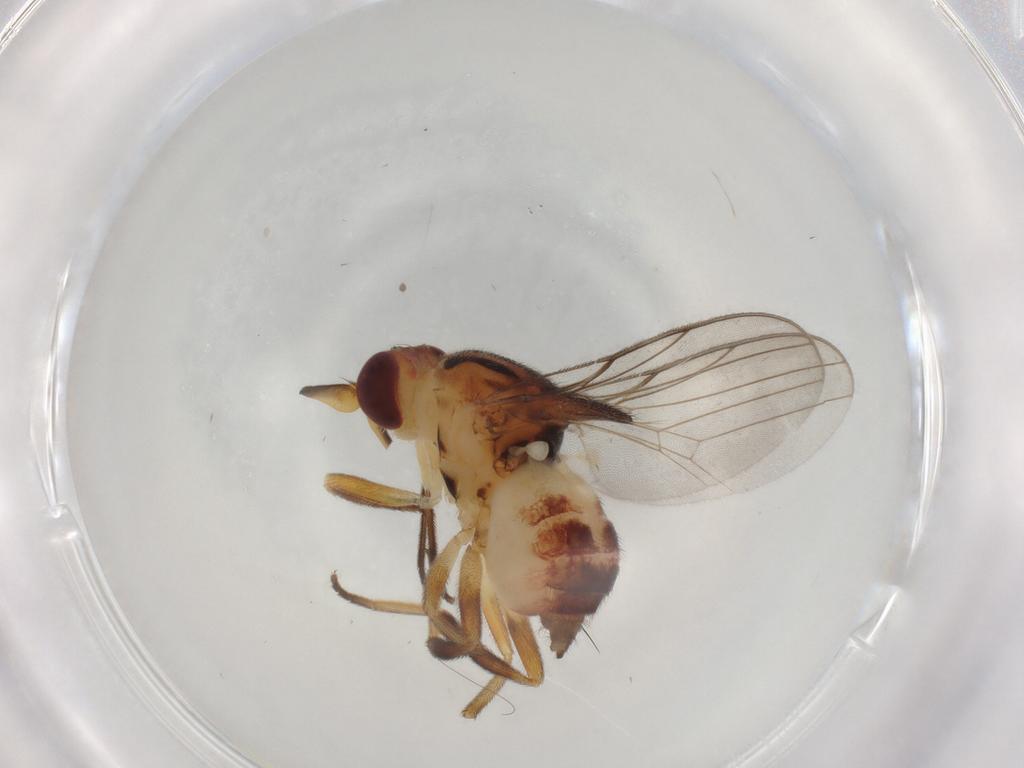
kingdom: Animalia
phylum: Arthropoda
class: Insecta
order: Diptera
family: Chloropidae
